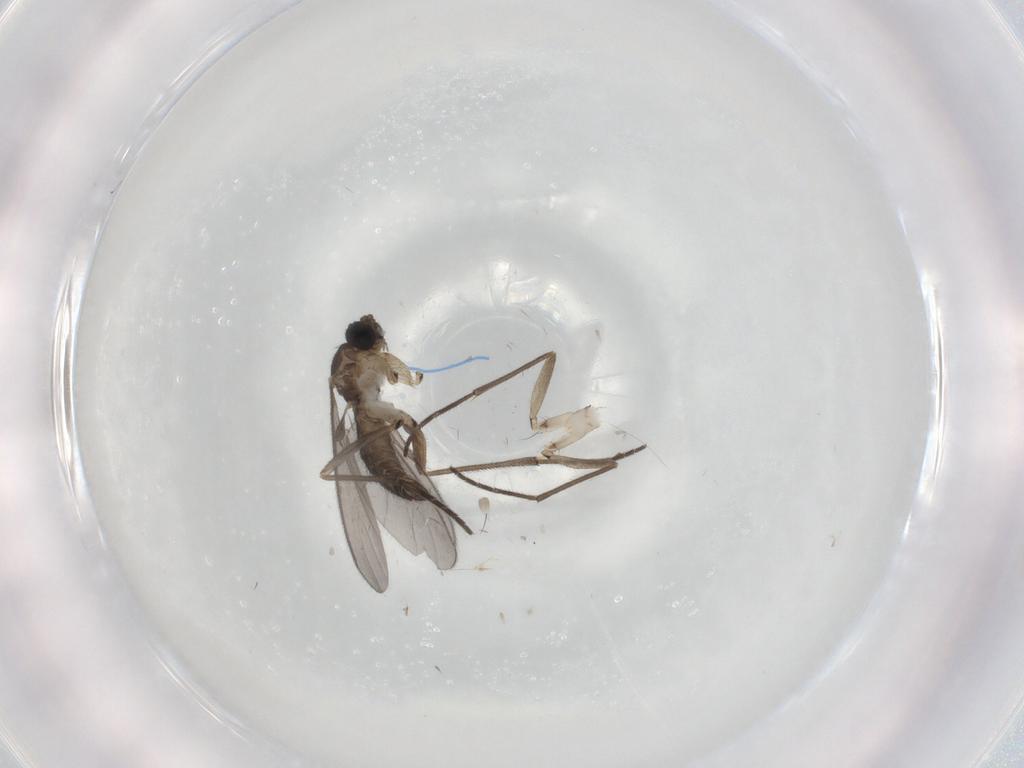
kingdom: Animalia
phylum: Arthropoda
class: Insecta
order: Diptera
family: Sciaridae
